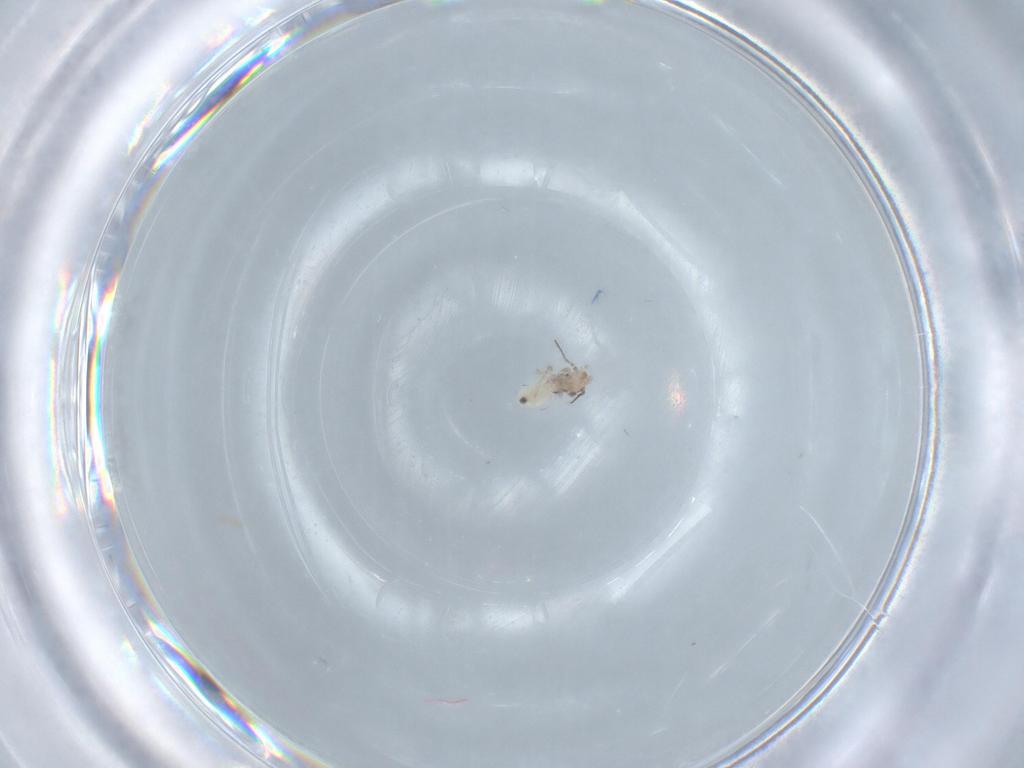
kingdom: Animalia
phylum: Arthropoda
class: Insecta
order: Psocodea
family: Lepidopsocidae
